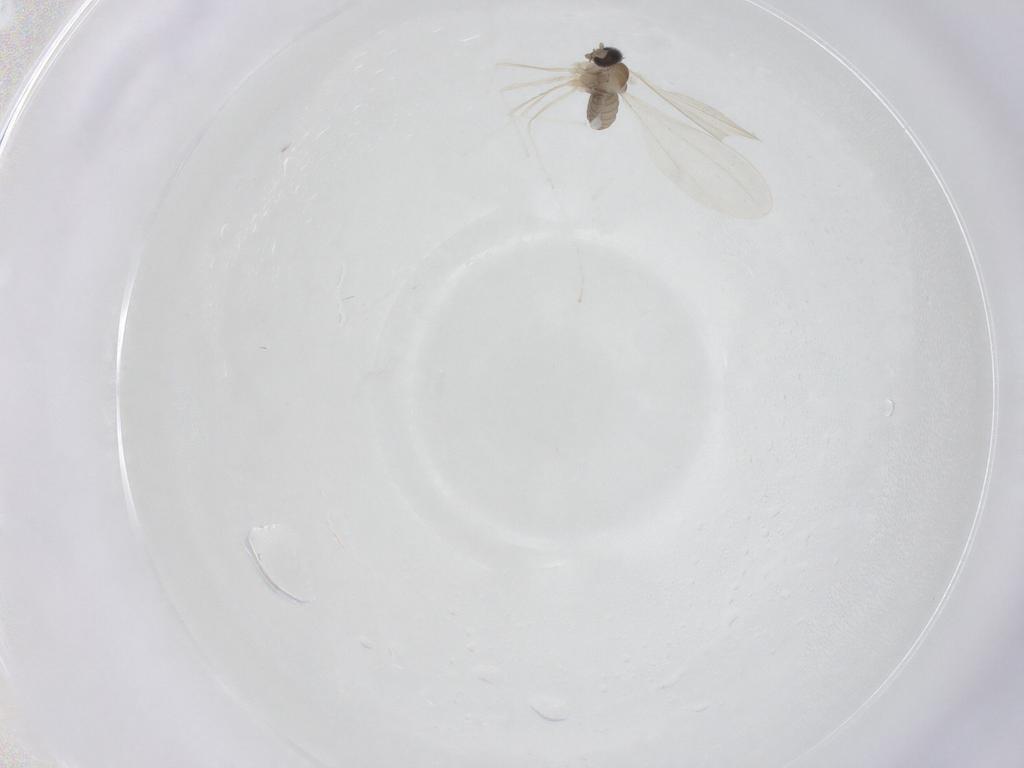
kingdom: Animalia
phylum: Arthropoda
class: Insecta
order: Diptera
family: Cecidomyiidae
